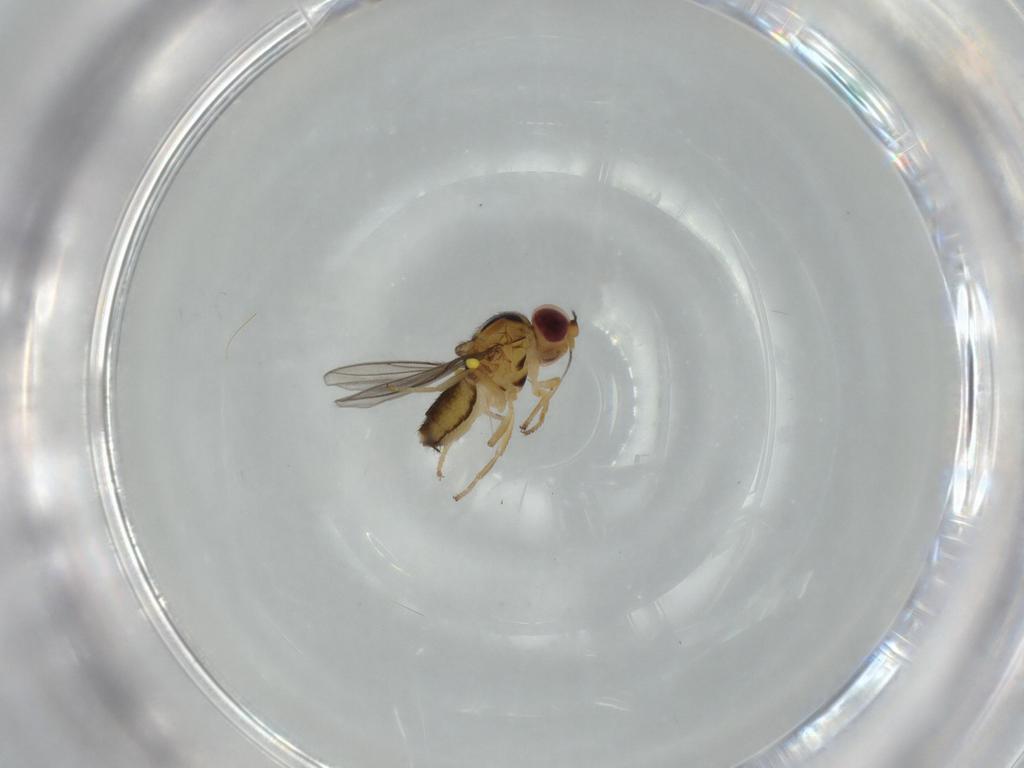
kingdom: Animalia
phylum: Arthropoda
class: Insecta
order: Diptera
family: Chloropidae
